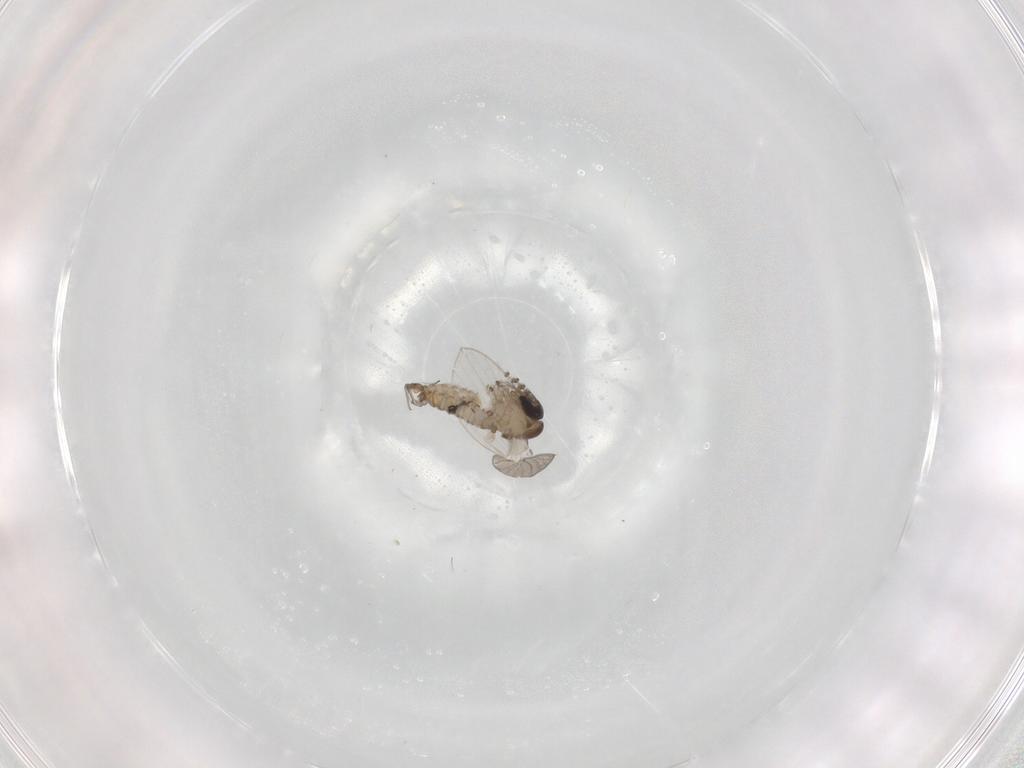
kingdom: Animalia
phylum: Arthropoda
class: Insecta
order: Diptera
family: Psychodidae
